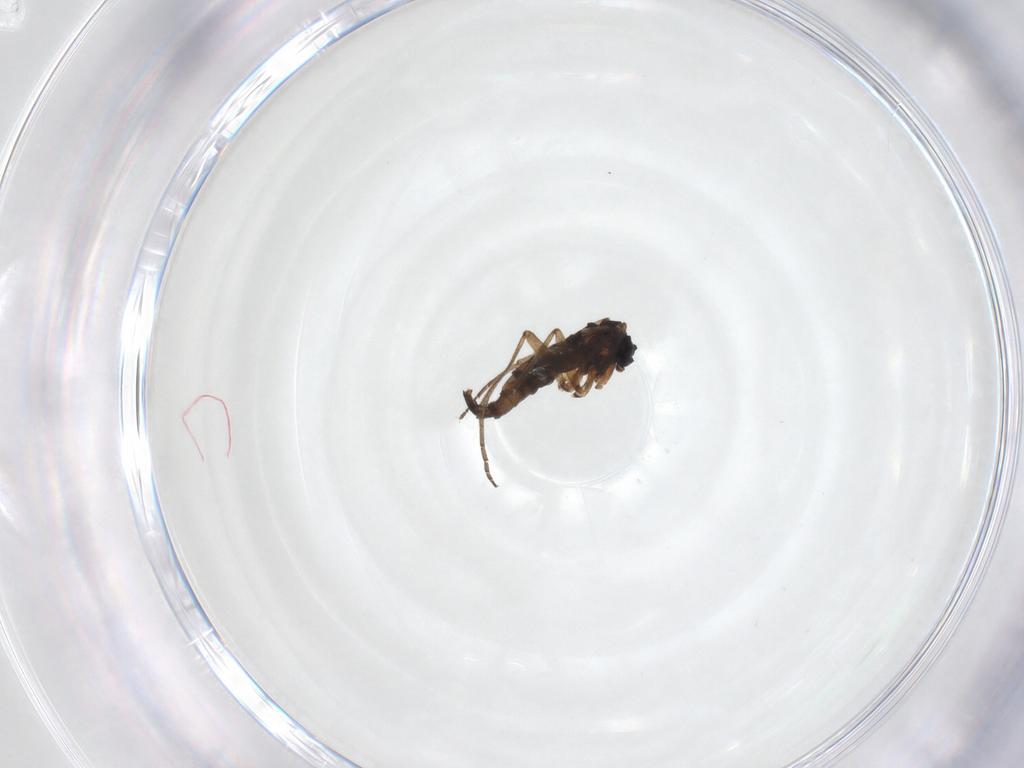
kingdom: Animalia
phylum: Arthropoda
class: Insecta
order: Diptera
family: Sciaridae
